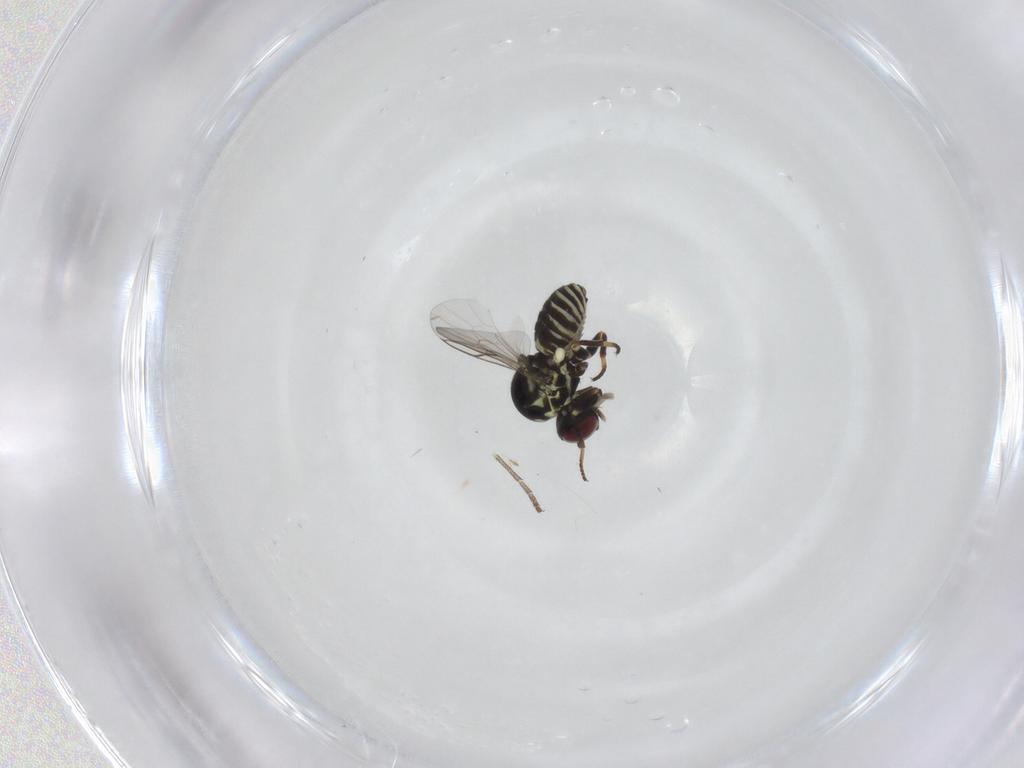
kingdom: Animalia
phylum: Arthropoda
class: Insecta
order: Diptera
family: Mythicomyiidae
